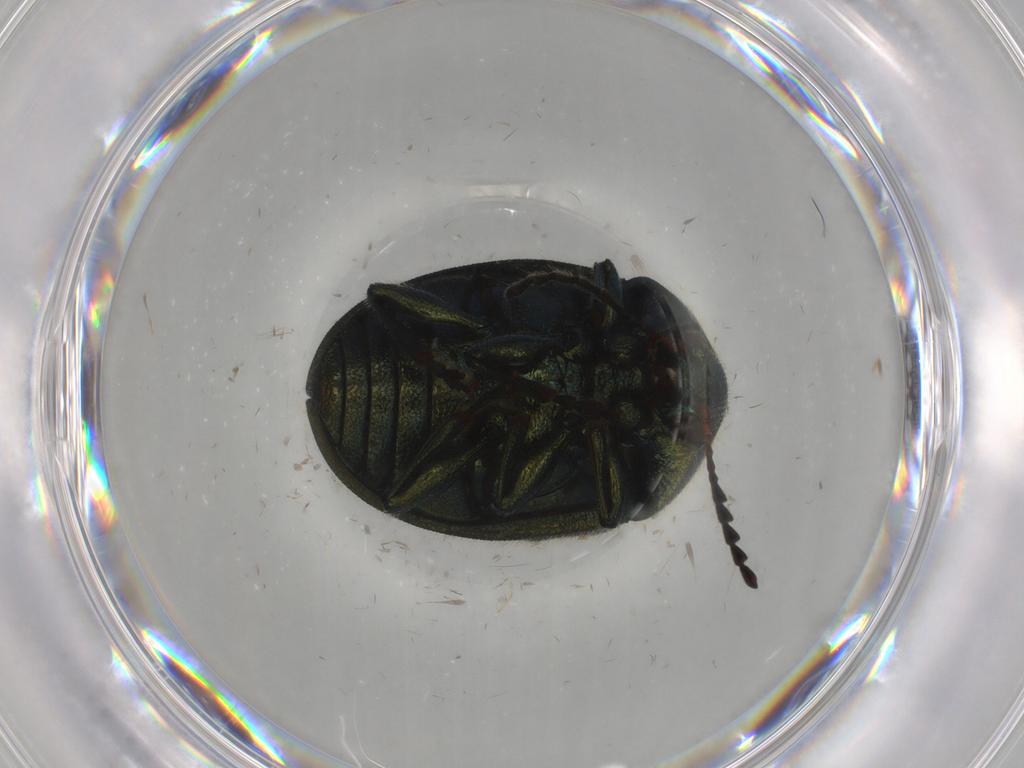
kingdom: Animalia
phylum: Arthropoda
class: Insecta
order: Coleoptera
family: Chrysomelidae
